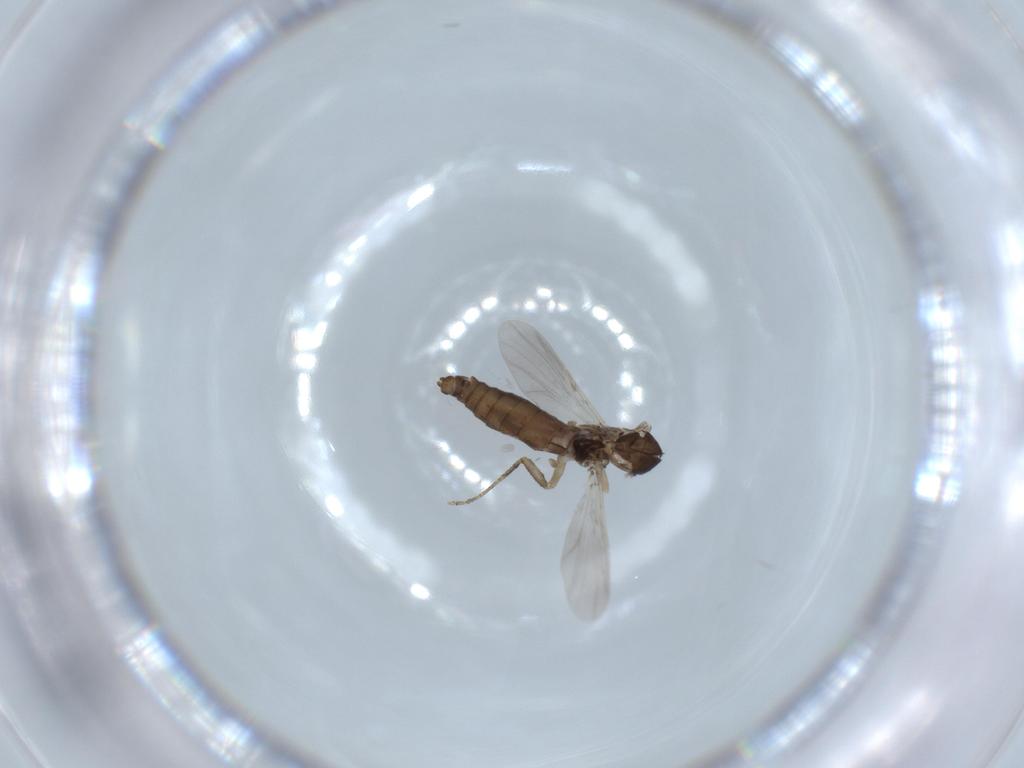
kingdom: Animalia
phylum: Arthropoda
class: Insecta
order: Diptera
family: Ceratopogonidae
